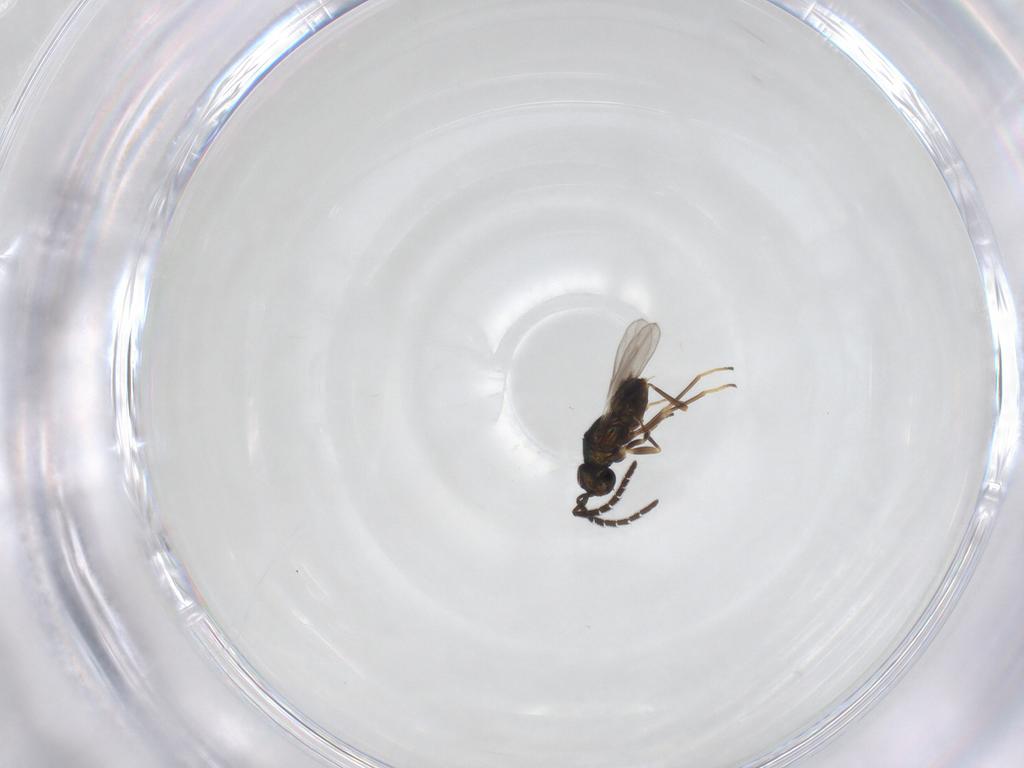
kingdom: Animalia
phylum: Arthropoda
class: Insecta
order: Hymenoptera
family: Encyrtidae
